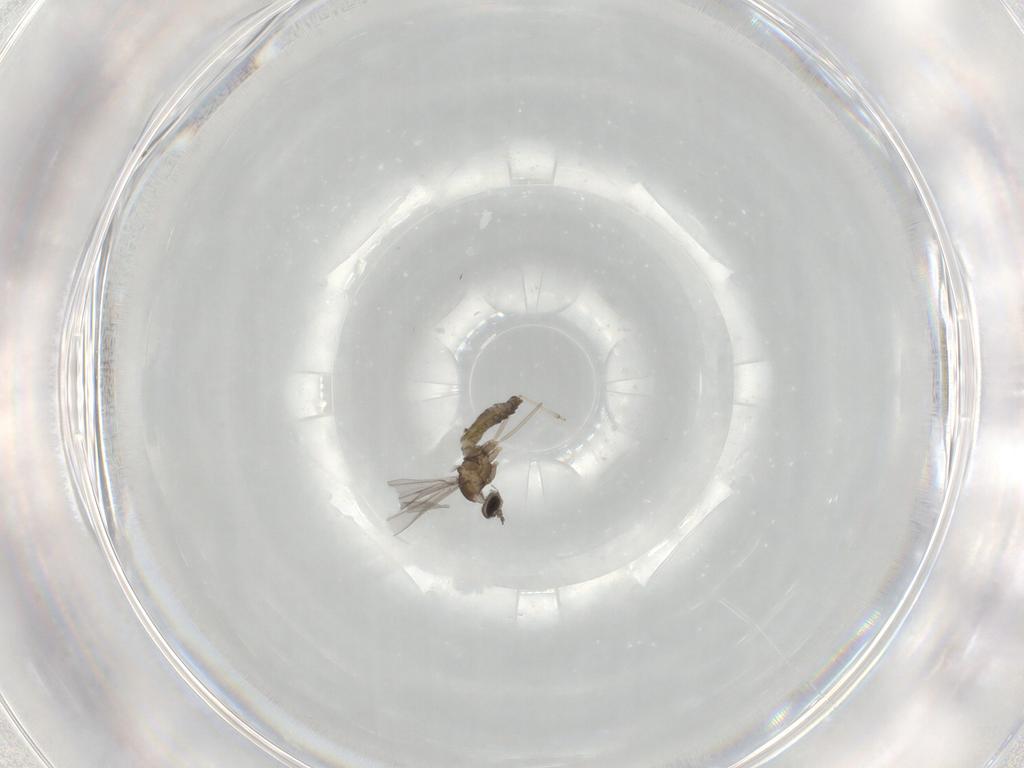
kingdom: Animalia
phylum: Arthropoda
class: Insecta
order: Diptera
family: Cecidomyiidae
